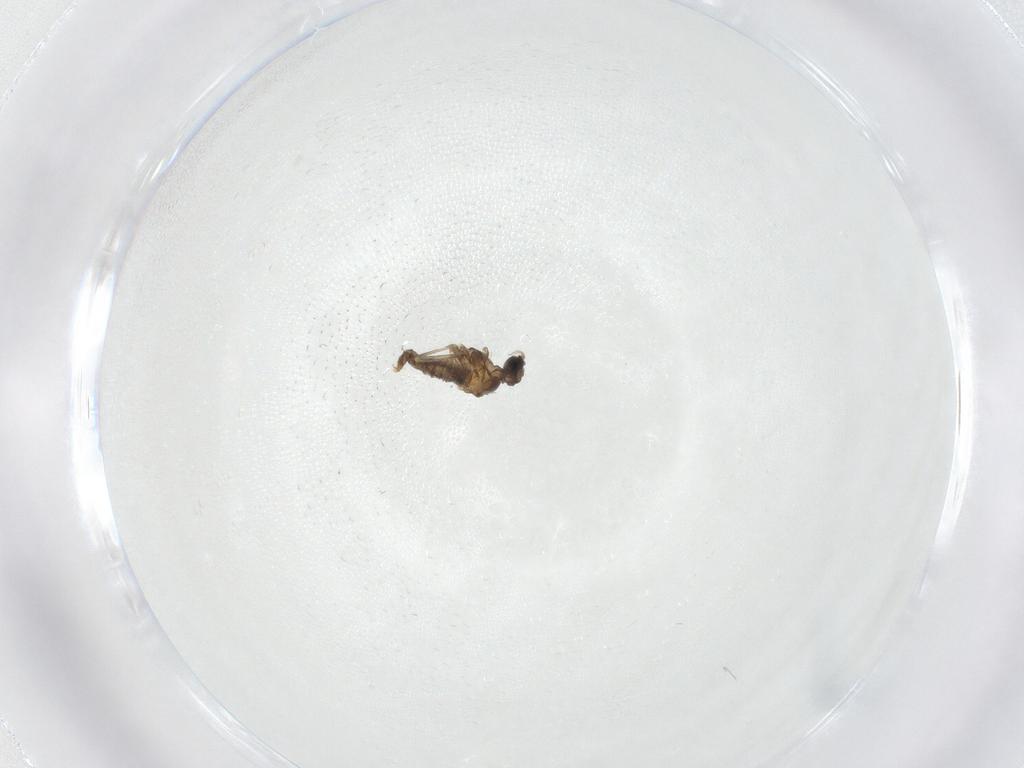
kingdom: Animalia
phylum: Arthropoda
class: Insecta
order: Diptera
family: Cecidomyiidae
